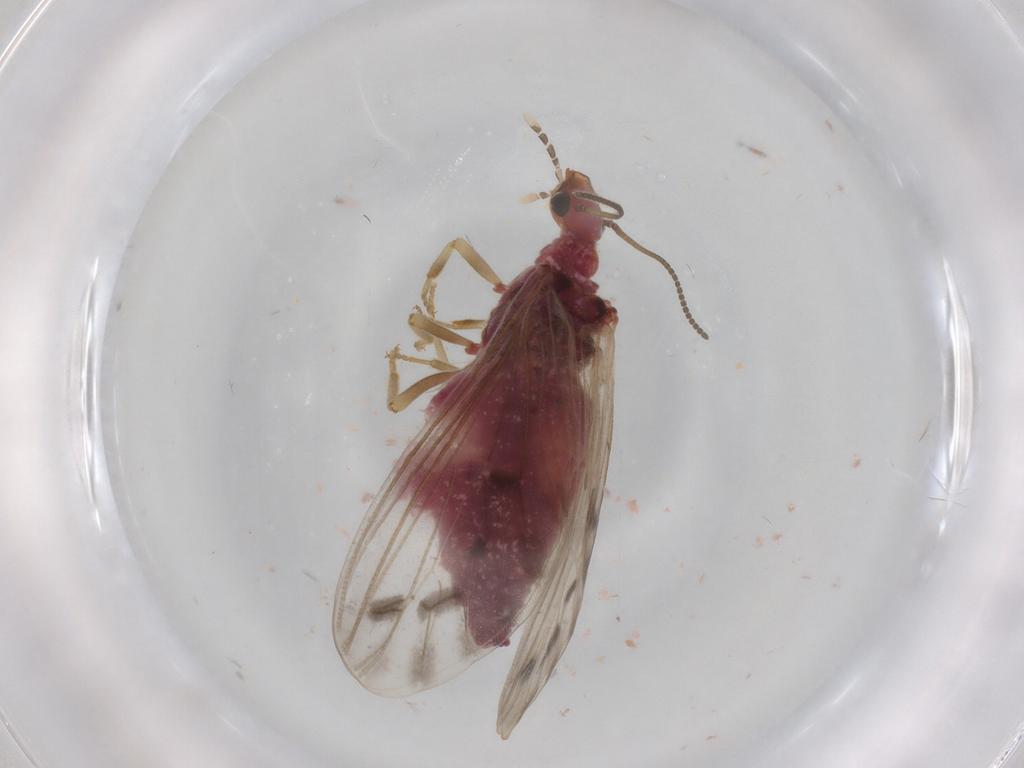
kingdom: Animalia
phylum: Arthropoda
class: Insecta
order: Neuroptera
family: Coniopterygidae
